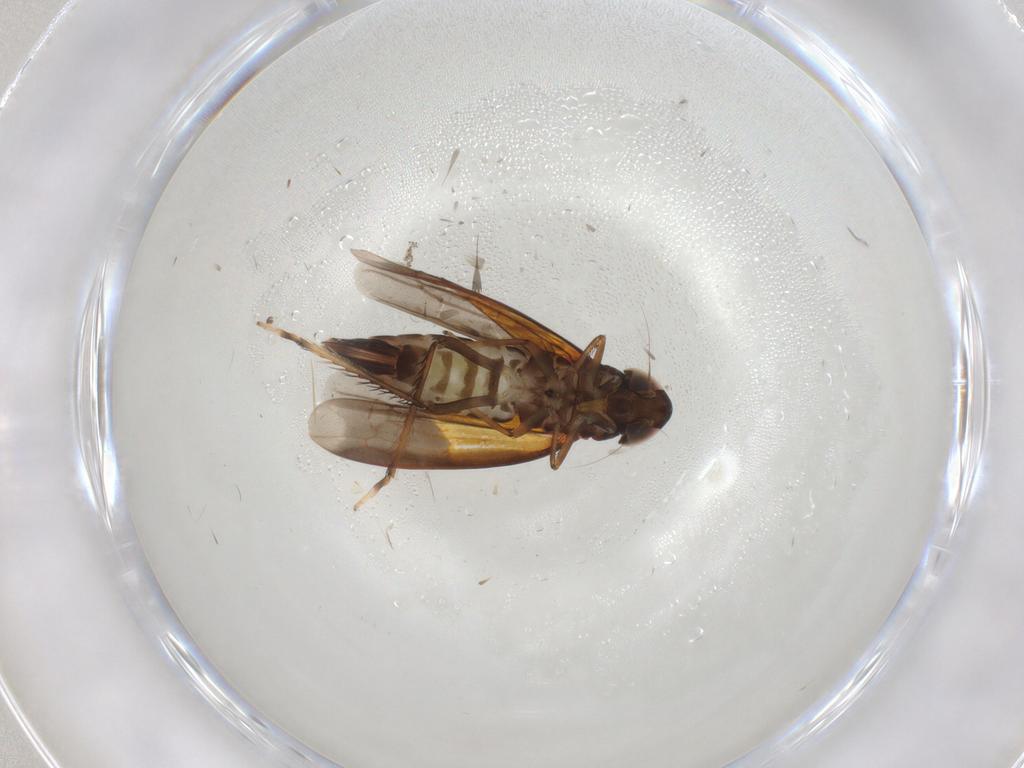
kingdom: Animalia
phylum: Arthropoda
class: Insecta
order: Hemiptera
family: Cicadellidae
